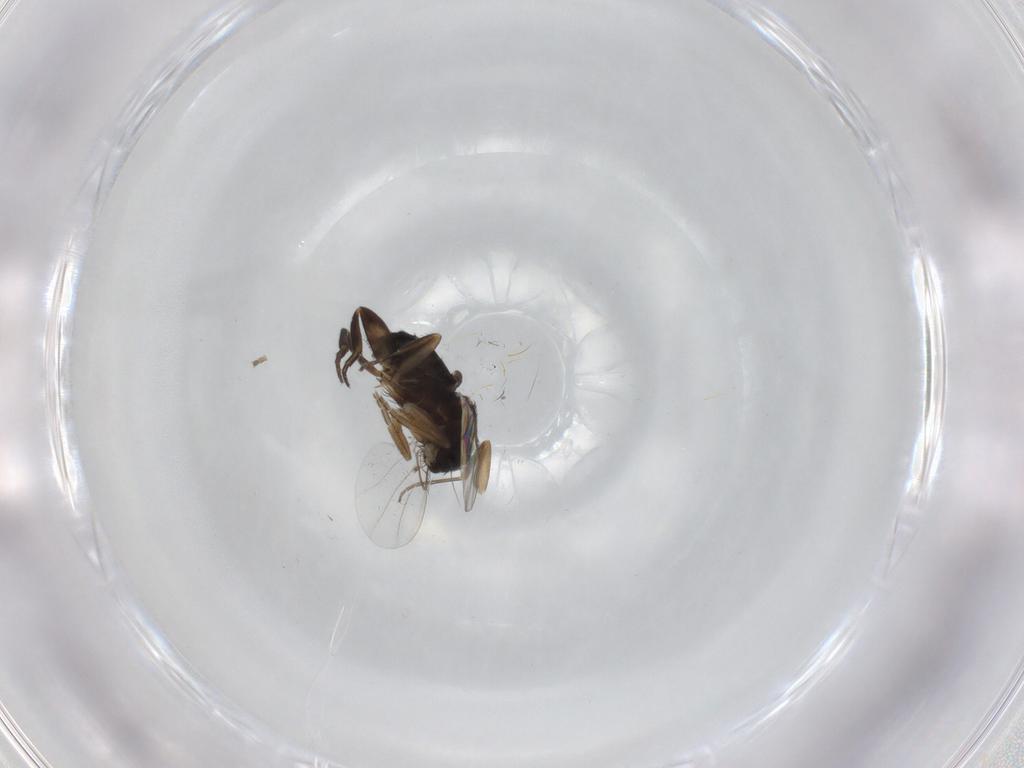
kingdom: Animalia
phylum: Arthropoda
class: Insecta
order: Diptera
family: Phoridae
